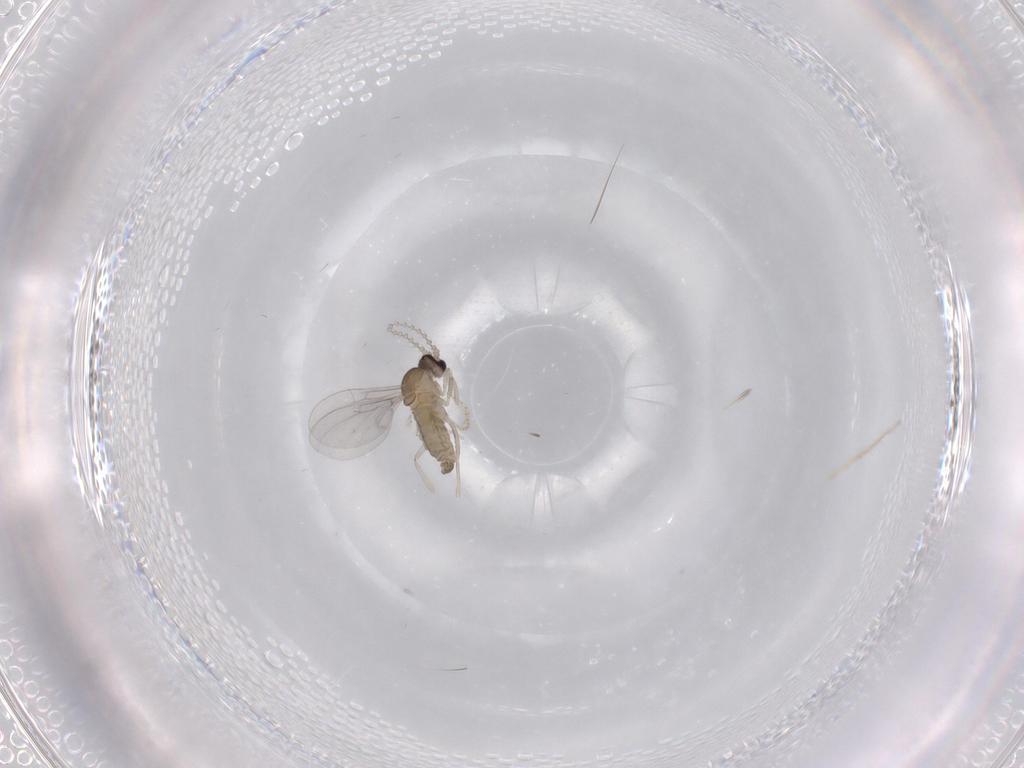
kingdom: Animalia
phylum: Arthropoda
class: Insecta
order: Diptera
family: Cecidomyiidae
